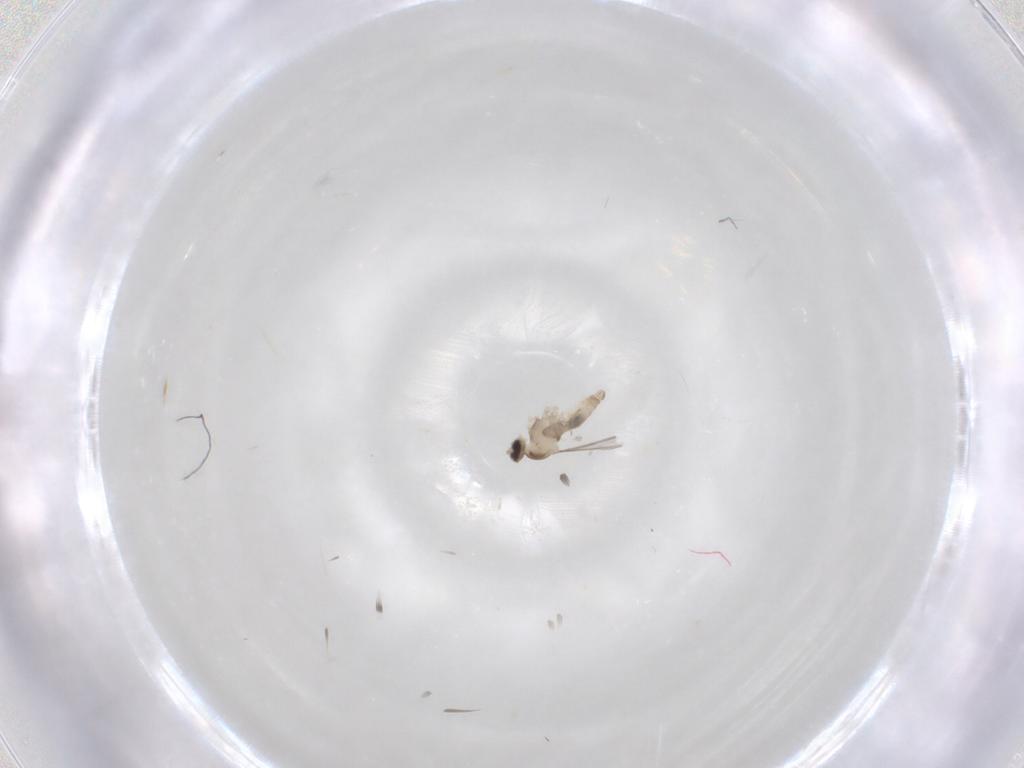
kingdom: Animalia
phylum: Arthropoda
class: Insecta
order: Diptera
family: Cecidomyiidae
